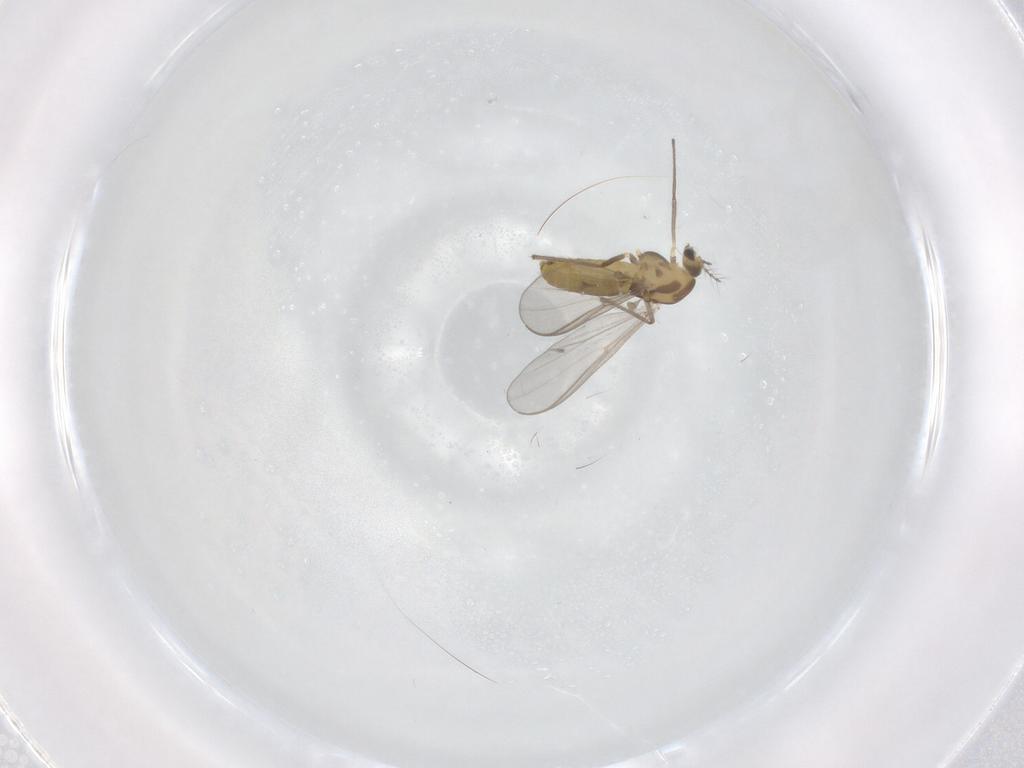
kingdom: Animalia
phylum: Arthropoda
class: Insecta
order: Diptera
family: Chironomidae
